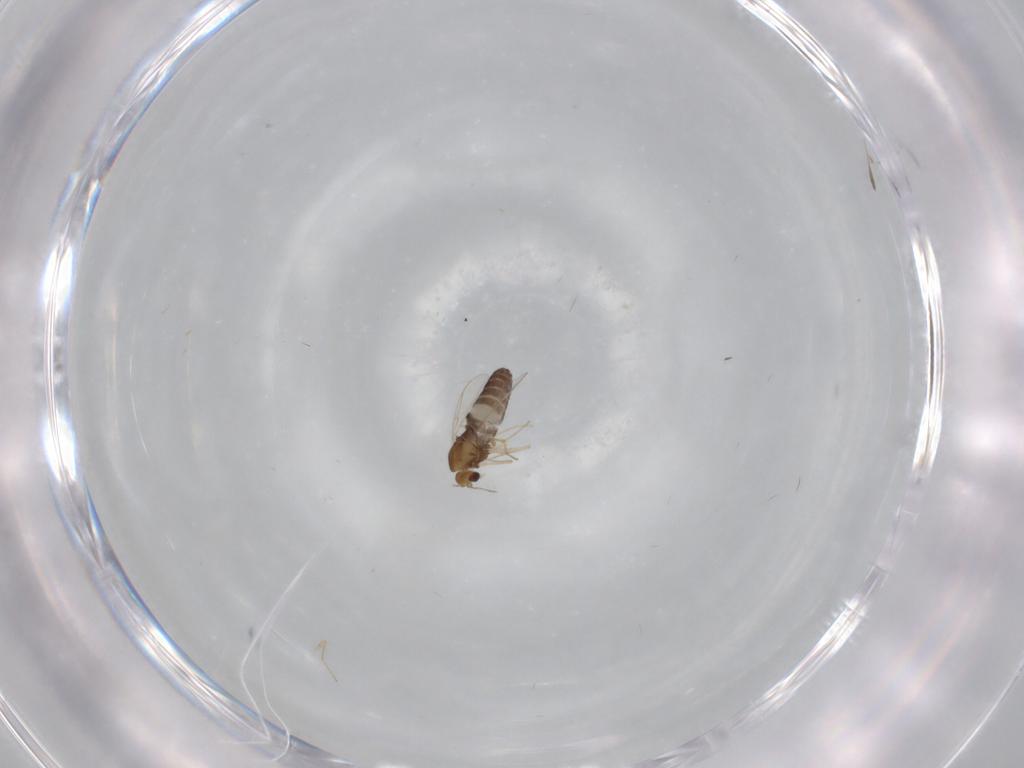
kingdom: Animalia
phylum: Arthropoda
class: Insecta
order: Diptera
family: Chironomidae
